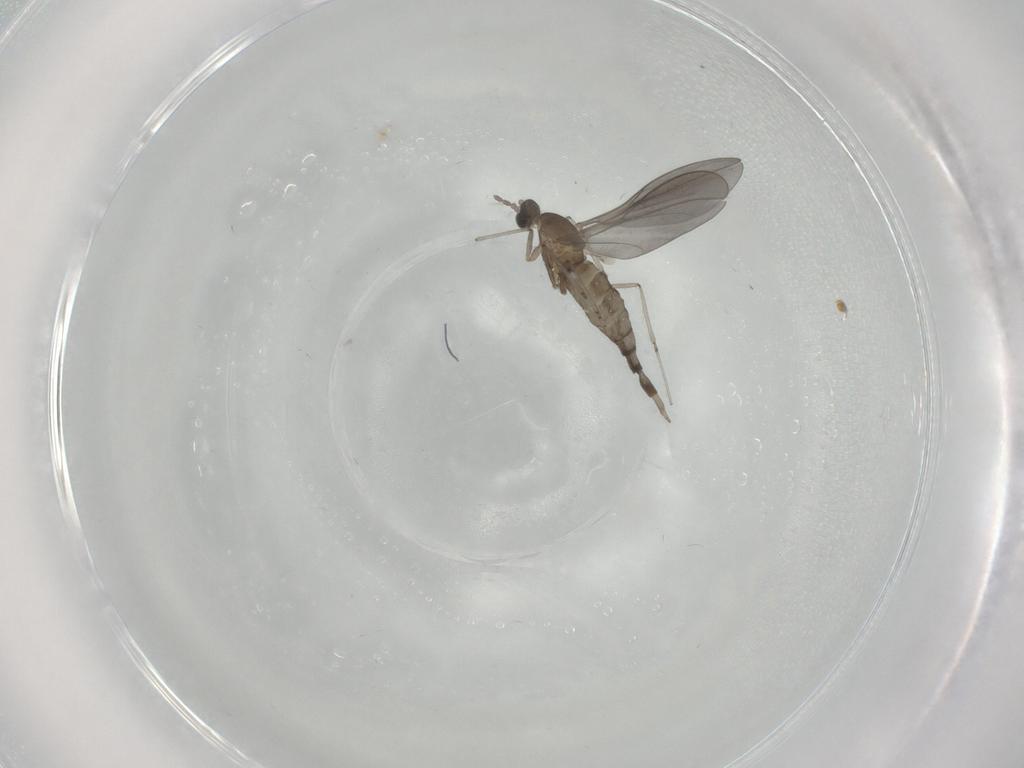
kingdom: Animalia
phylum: Arthropoda
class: Insecta
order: Diptera
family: Cecidomyiidae
